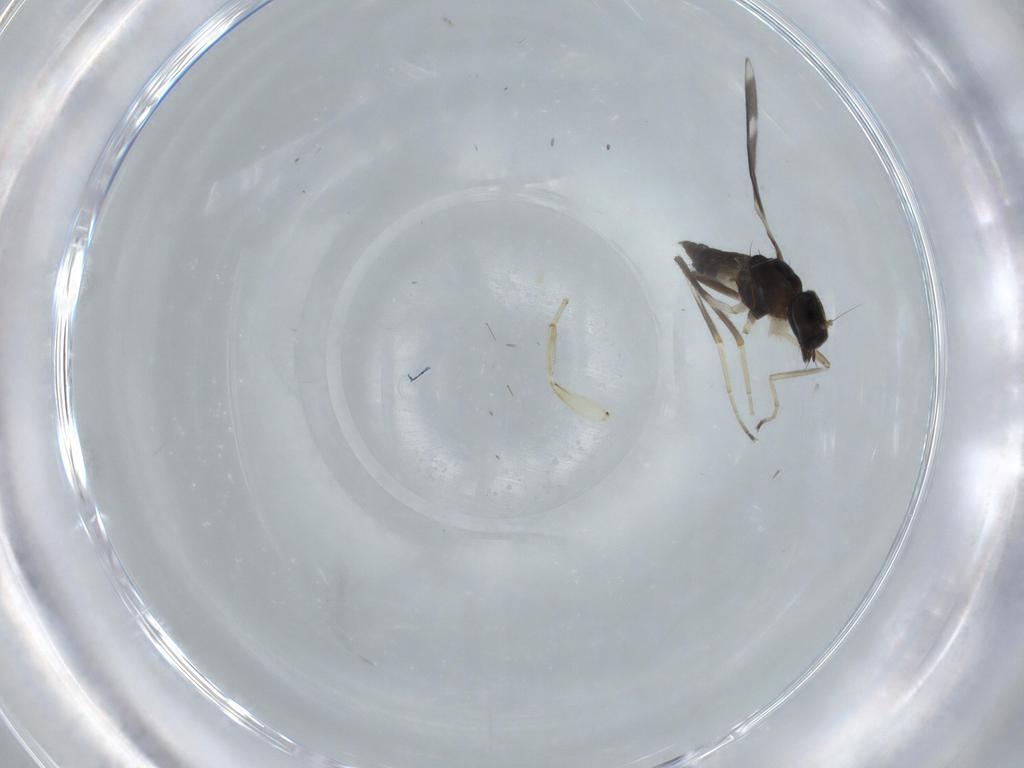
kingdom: Animalia
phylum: Arthropoda
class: Insecta
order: Diptera
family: Hybotidae
